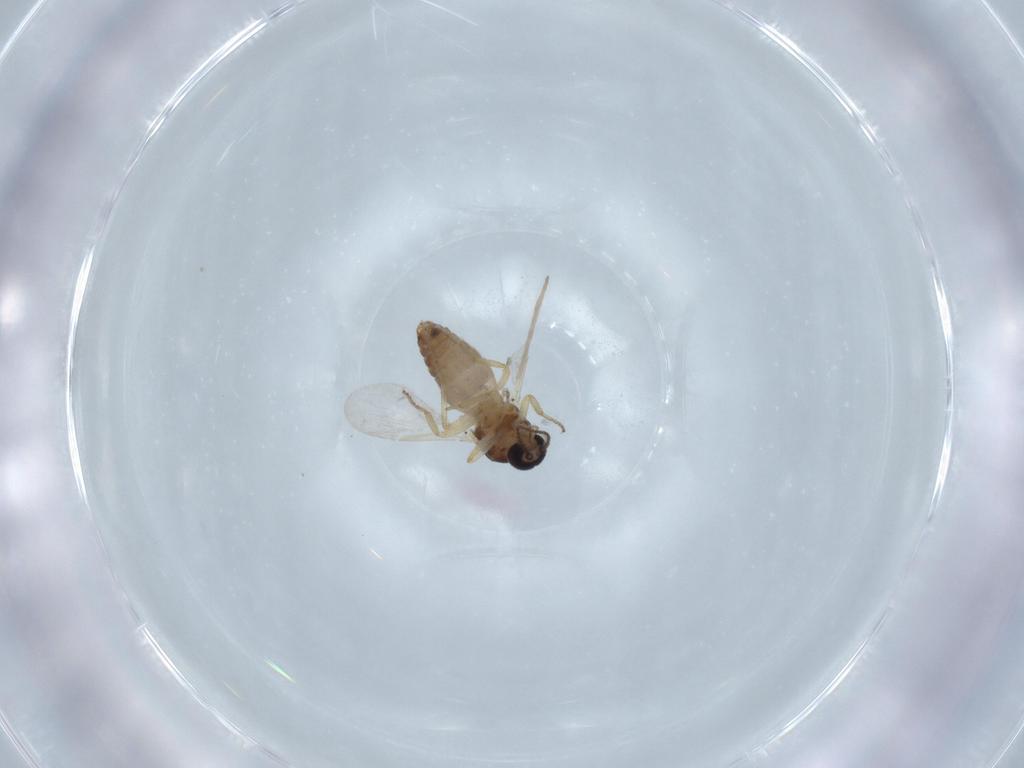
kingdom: Animalia
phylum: Arthropoda
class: Insecta
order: Diptera
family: Ceratopogonidae
